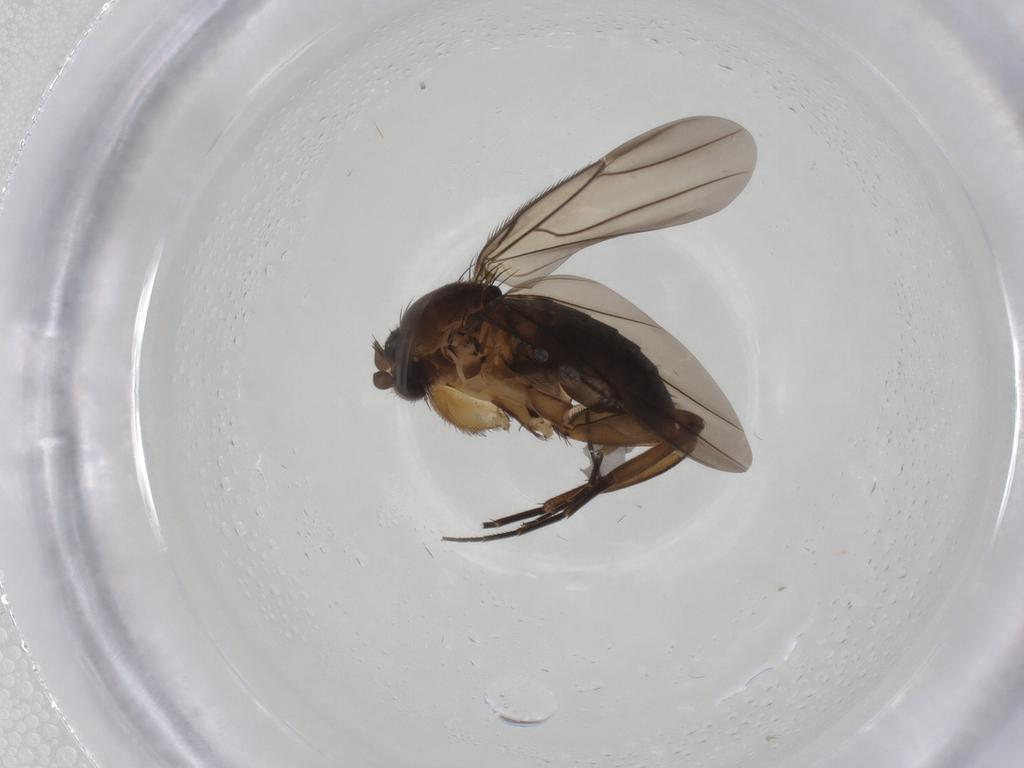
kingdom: Animalia
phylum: Arthropoda
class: Insecta
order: Diptera
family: Phoridae
